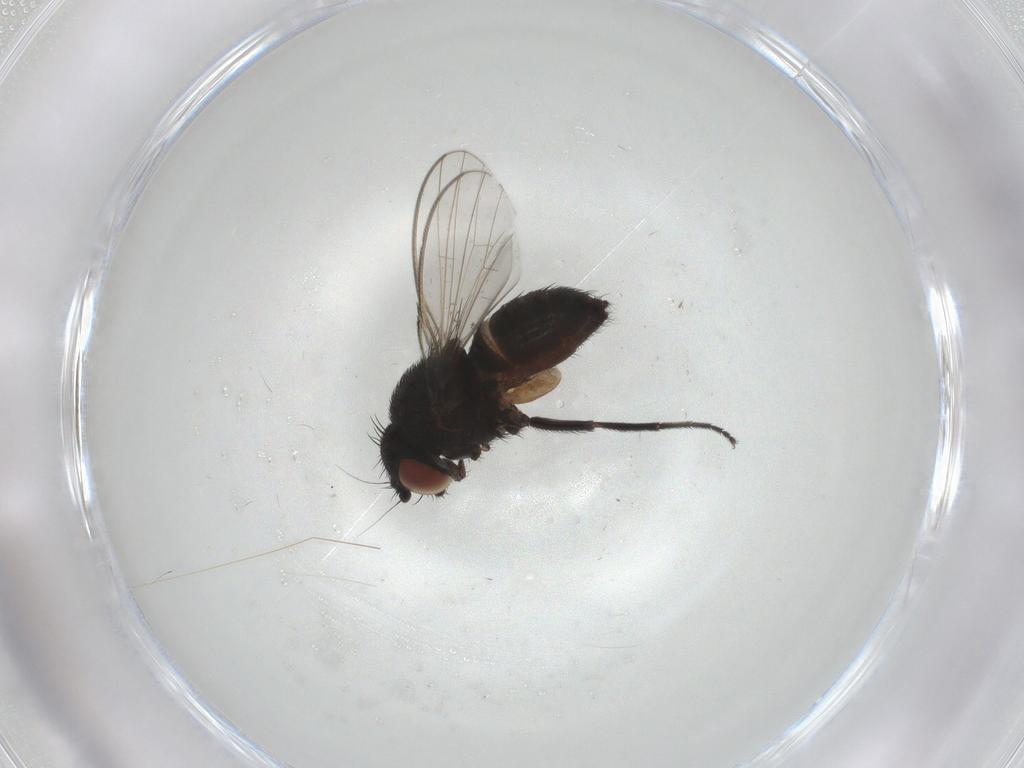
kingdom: Animalia
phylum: Arthropoda
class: Insecta
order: Diptera
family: Milichiidae
